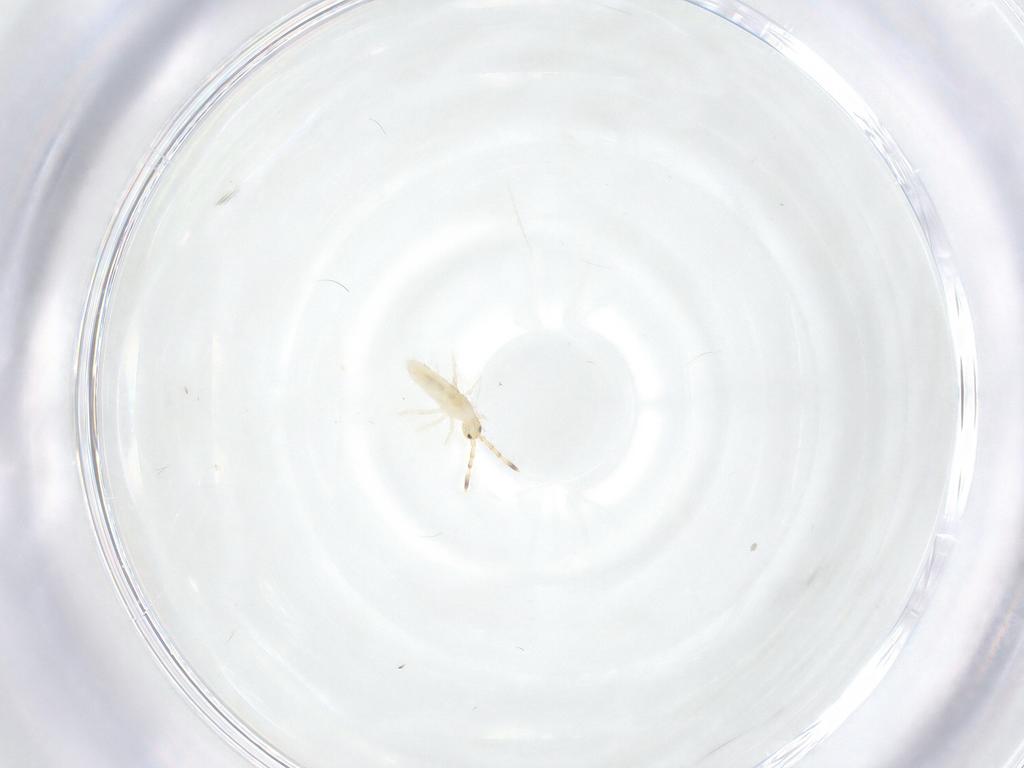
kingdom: Animalia
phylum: Arthropoda
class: Collembola
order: Entomobryomorpha
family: Entomobryidae
